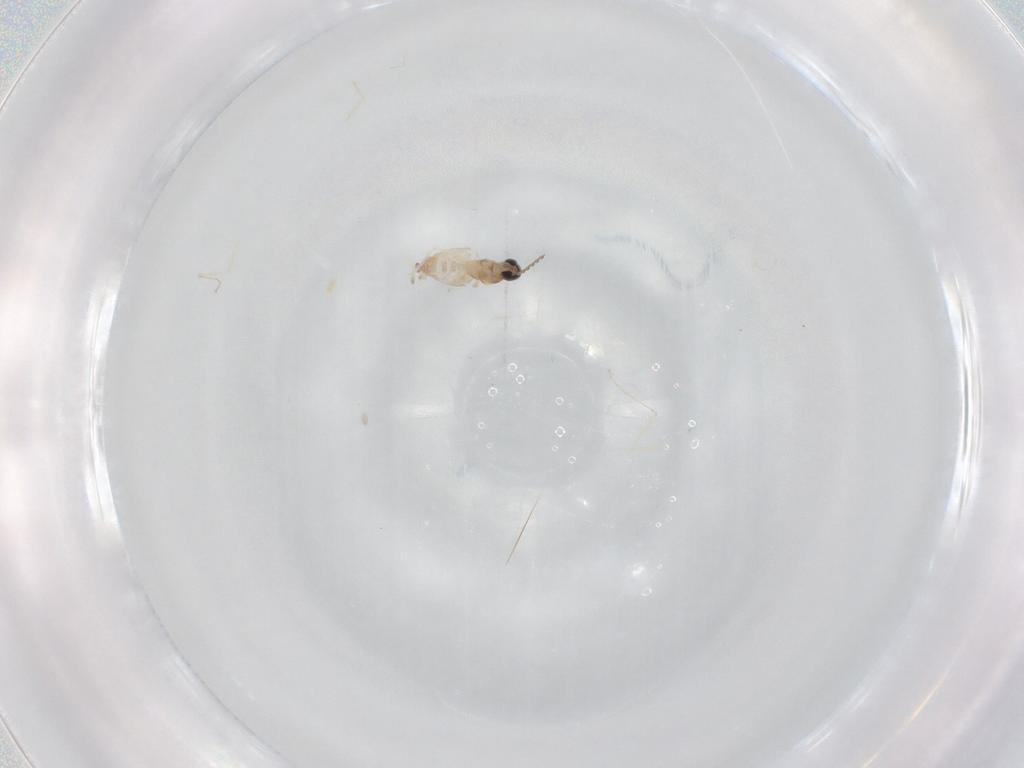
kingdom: Animalia
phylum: Arthropoda
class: Insecta
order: Diptera
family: Cecidomyiidae
